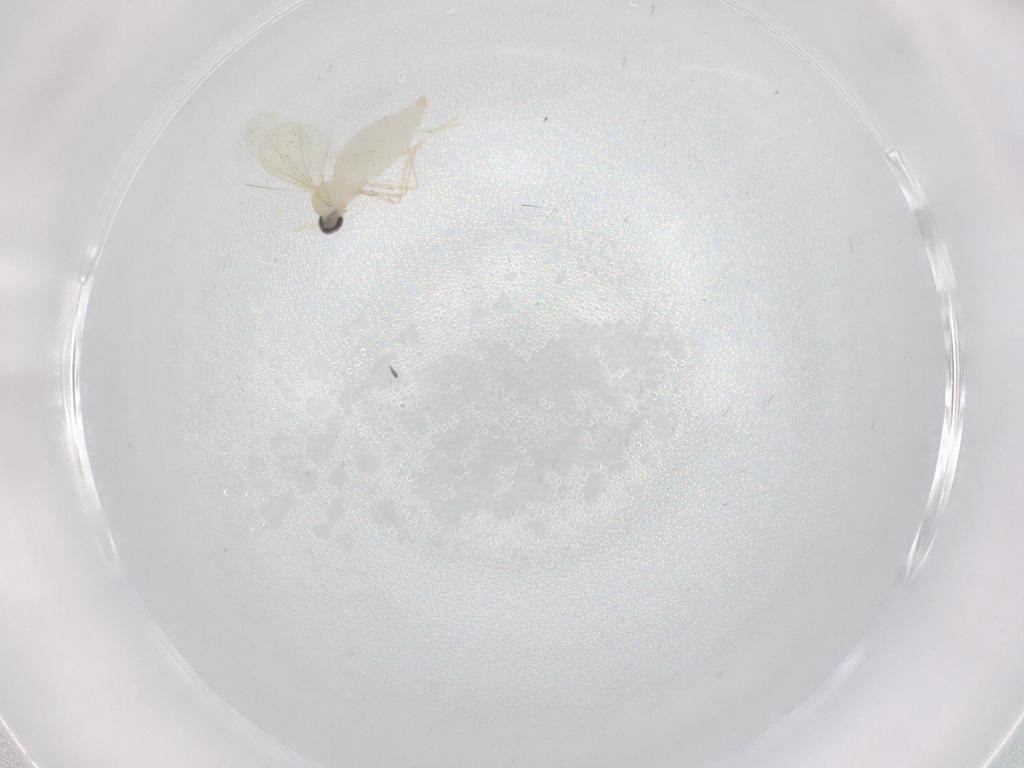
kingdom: Animalia
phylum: Arthropoda
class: Insecta
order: Diptera
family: Cecidomyiidae
